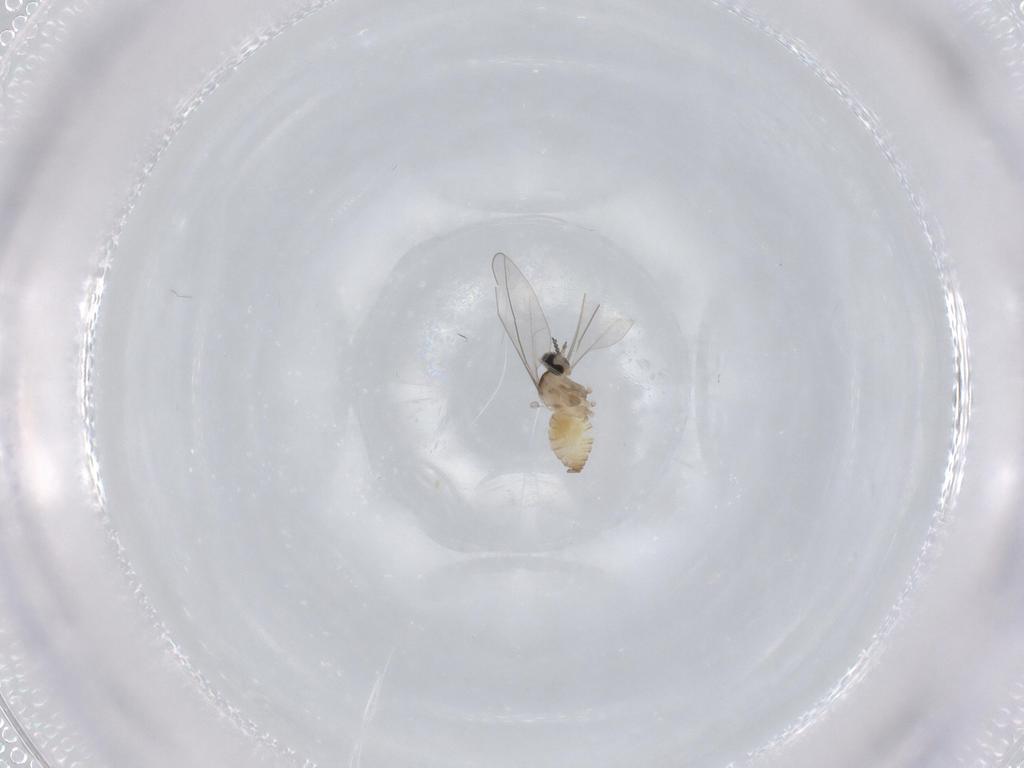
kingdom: Animalia
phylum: Arthropoda
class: Insecta
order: Diptera
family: Cecidomyiidae
